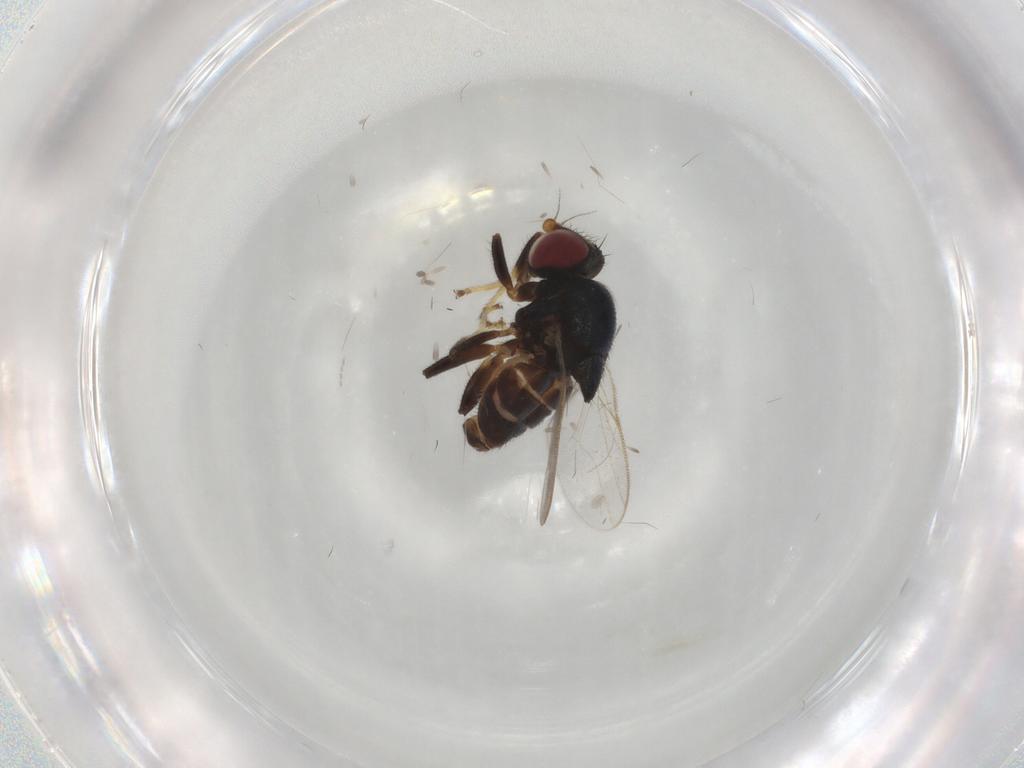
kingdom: Animalia
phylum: Arthropoda
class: Insecta
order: Diptera
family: Chloropidae
